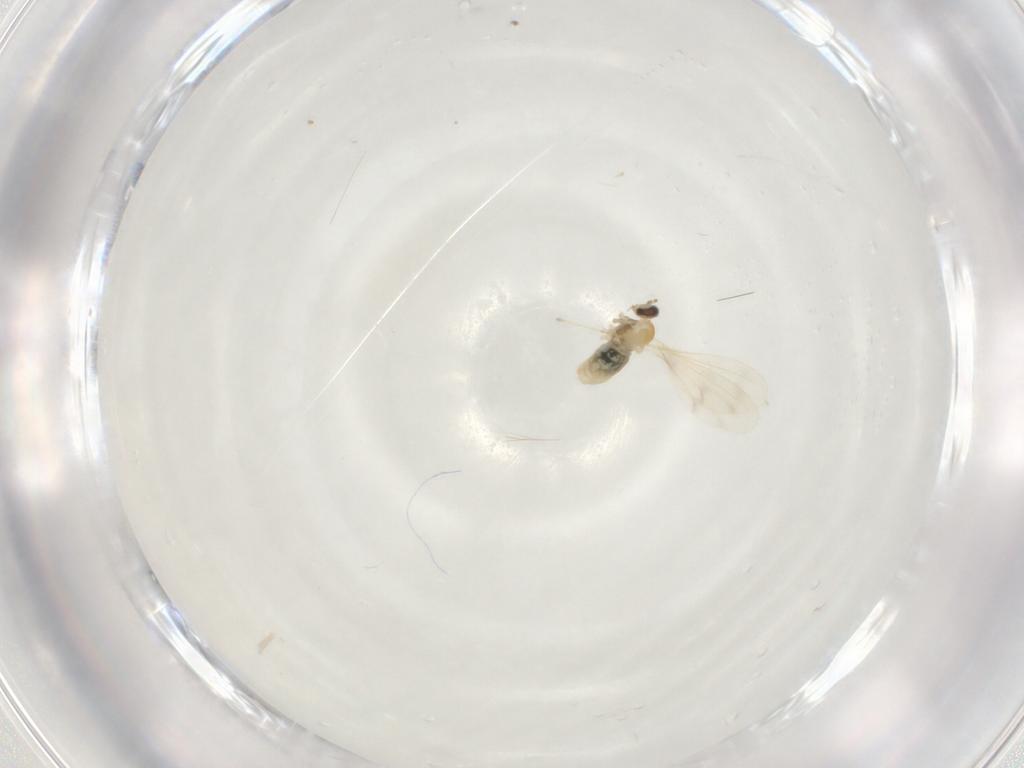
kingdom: Animalia
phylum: Arthropoda
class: Insecta
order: Diptera
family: Cecidomyiidae
